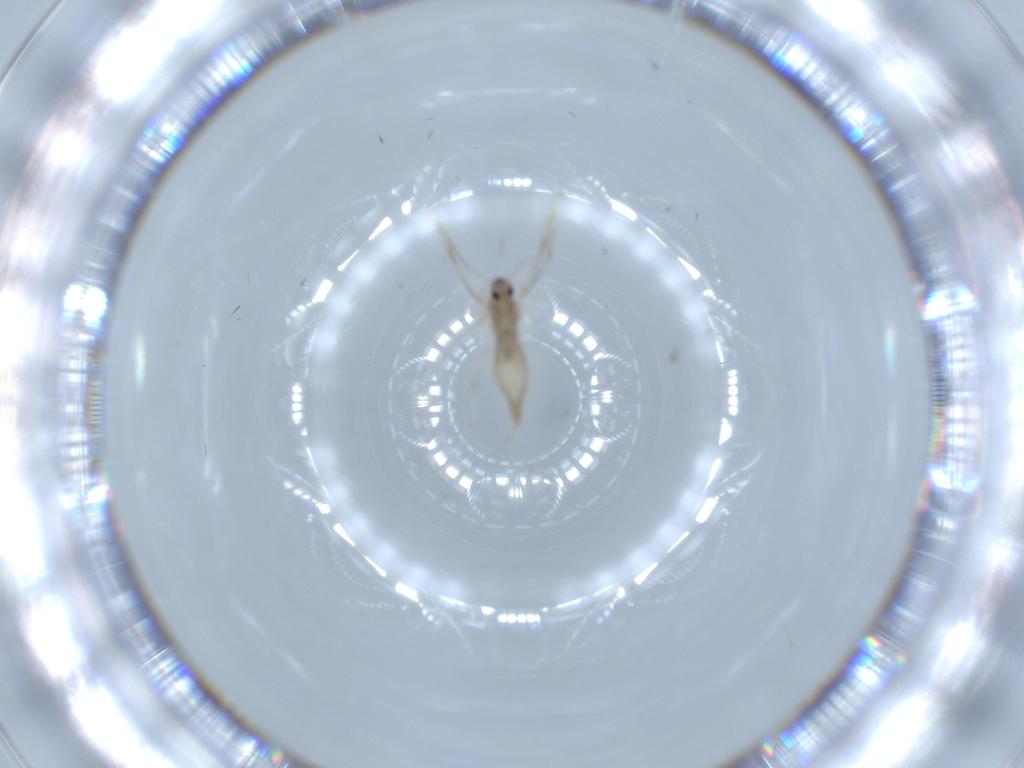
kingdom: Animalia
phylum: Arthropoda
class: Insecta
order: Diptera
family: Cecidomyiidae
